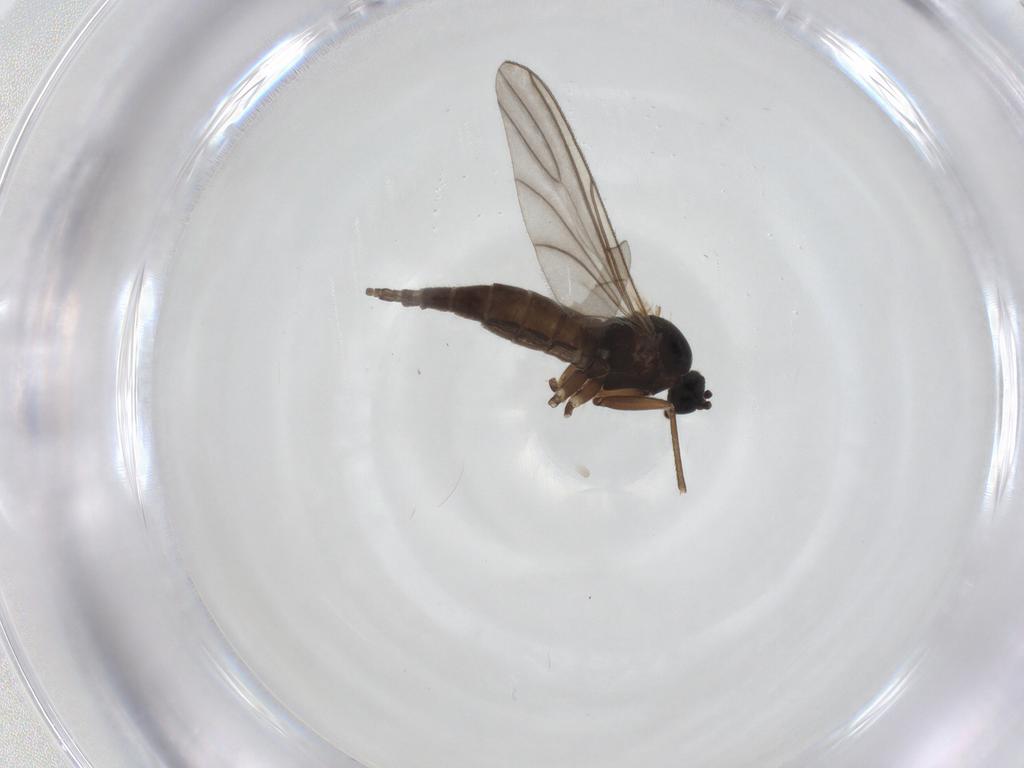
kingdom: Animalia
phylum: Arthropoda
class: Insecta
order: Diptera
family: Sciaridae
